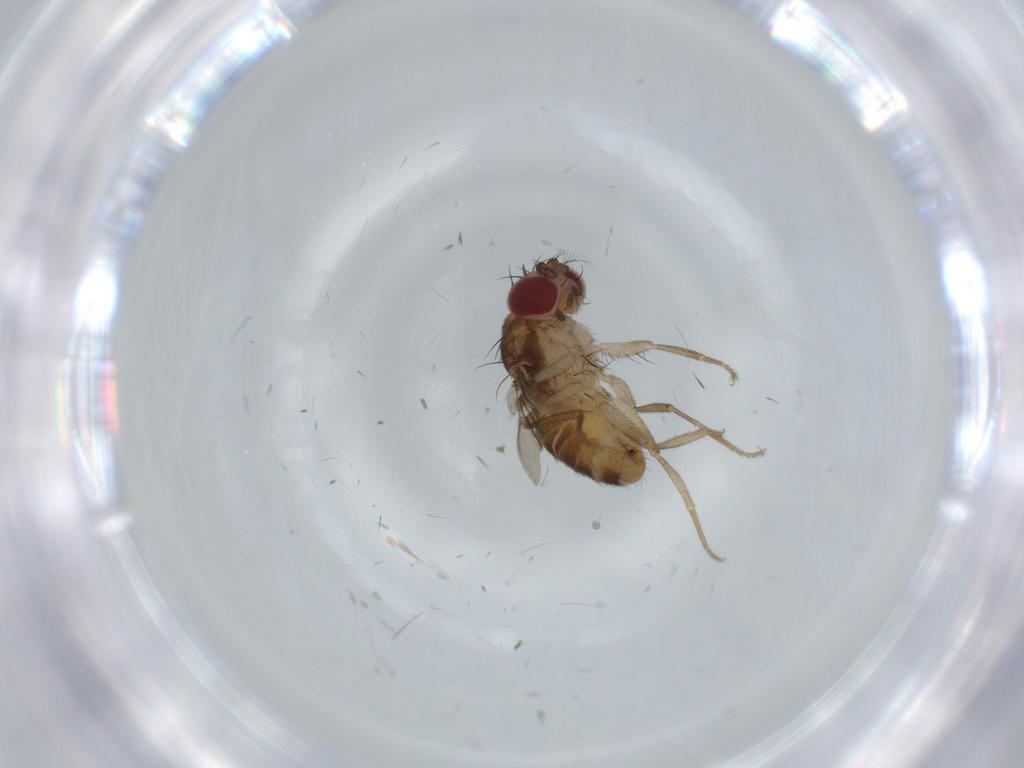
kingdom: Animalia
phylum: Arthropoda
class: Insecta
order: Diptera
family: Drosophilidae
